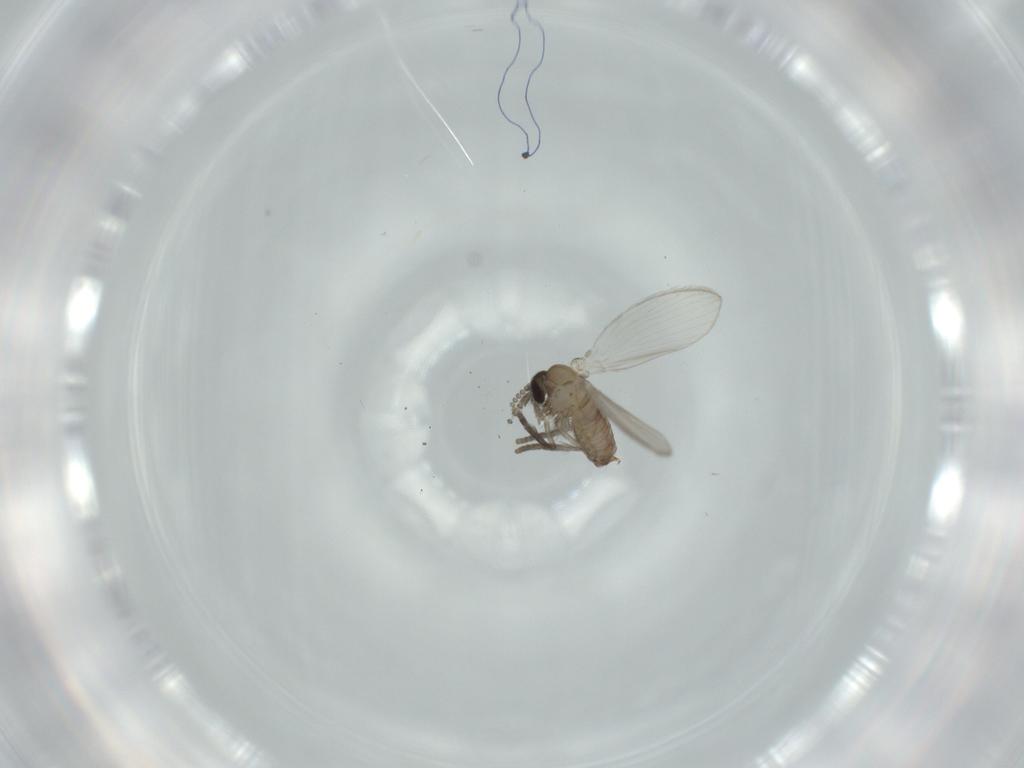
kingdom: Animalia
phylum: Arthropoda
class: Insecta
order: Diptera
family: Psychodidae
